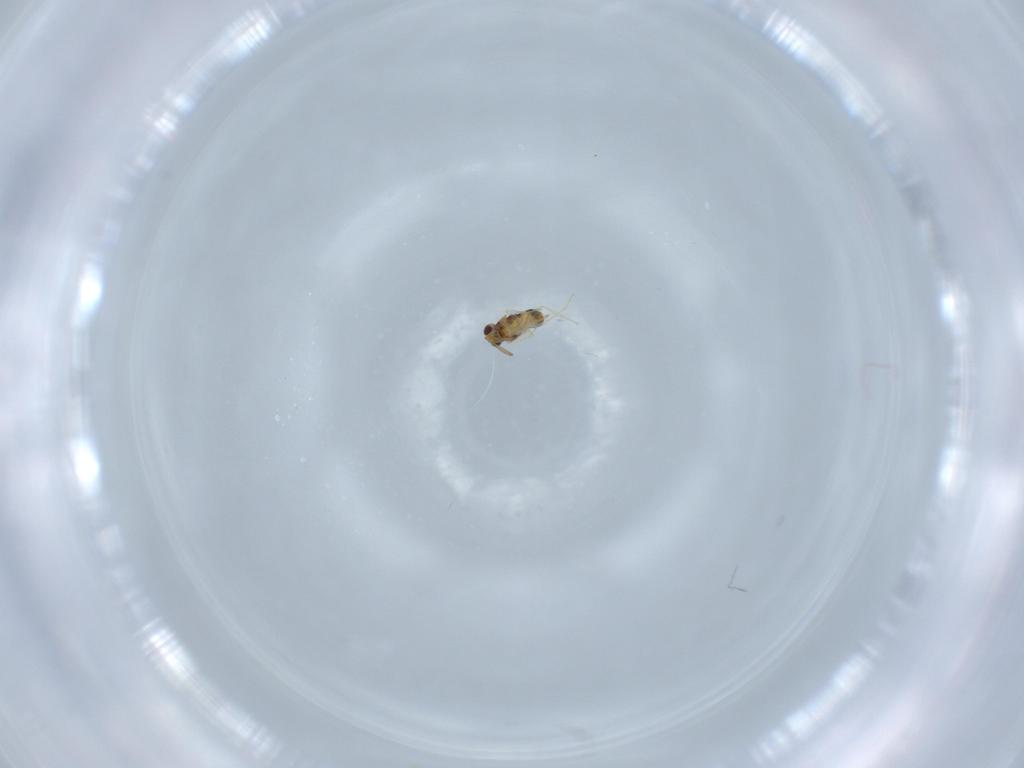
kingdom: Animalia
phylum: Arthropoda
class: Insecta
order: Hymenoptera
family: Aphelinidae
